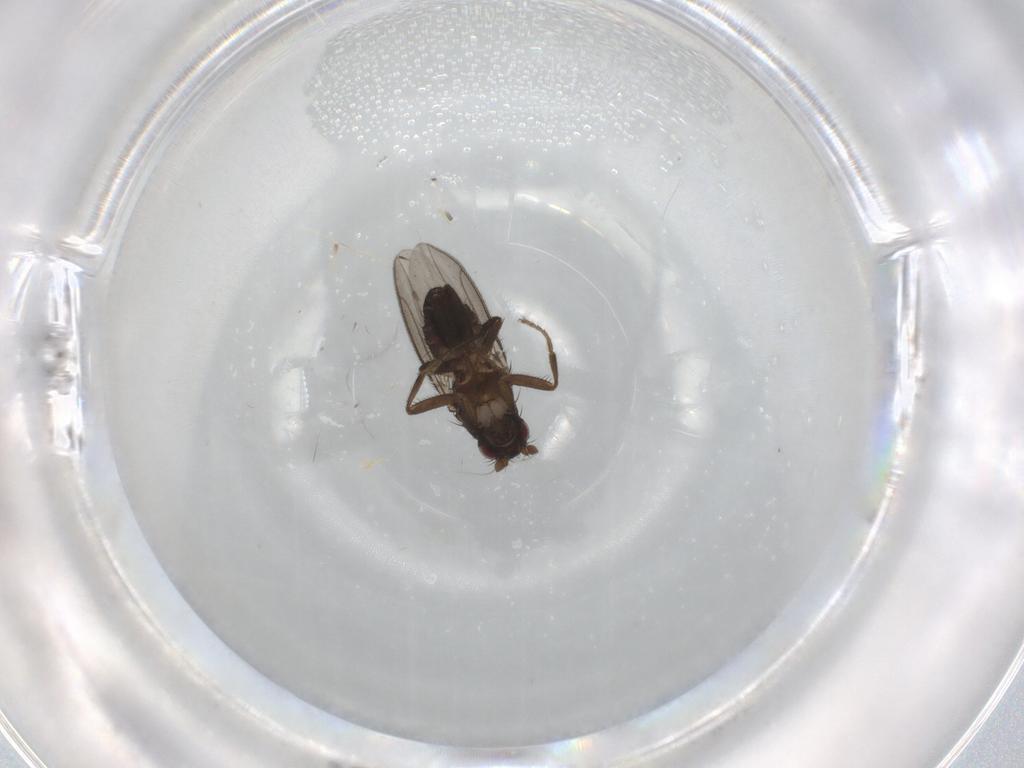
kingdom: Animalia
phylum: Arthropoda
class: Insecta
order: Diptera
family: Sphaeroceridae
